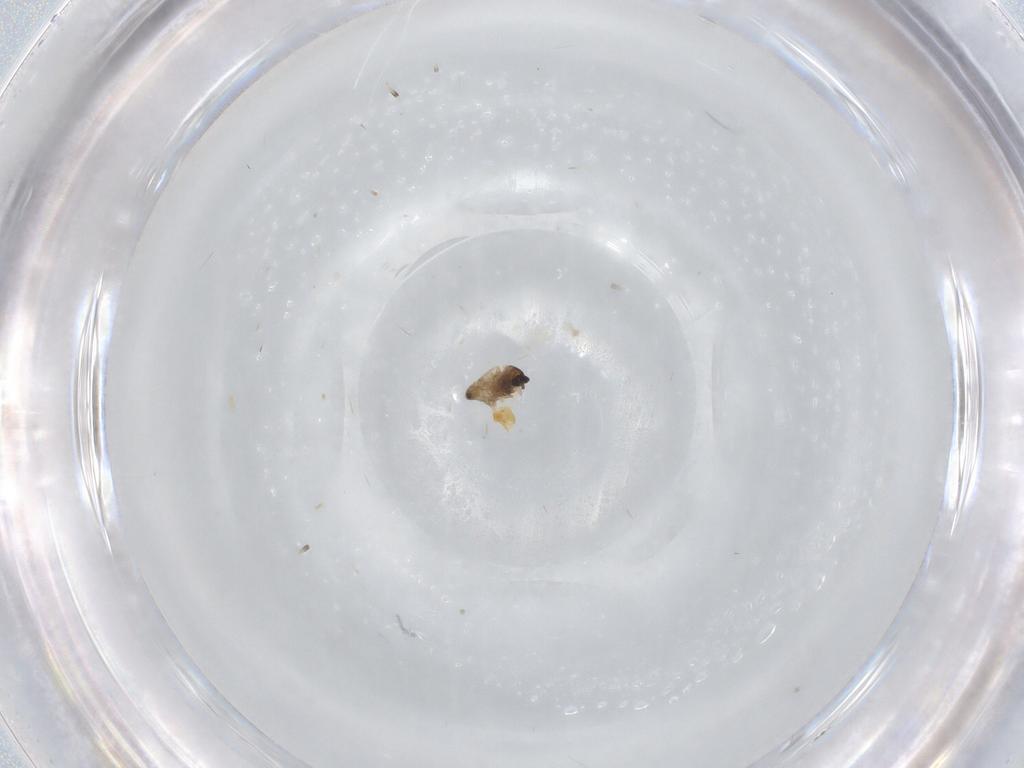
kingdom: Animalia
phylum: Arthropoda
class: Insecta
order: Diptera
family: Cecidomyiidae
